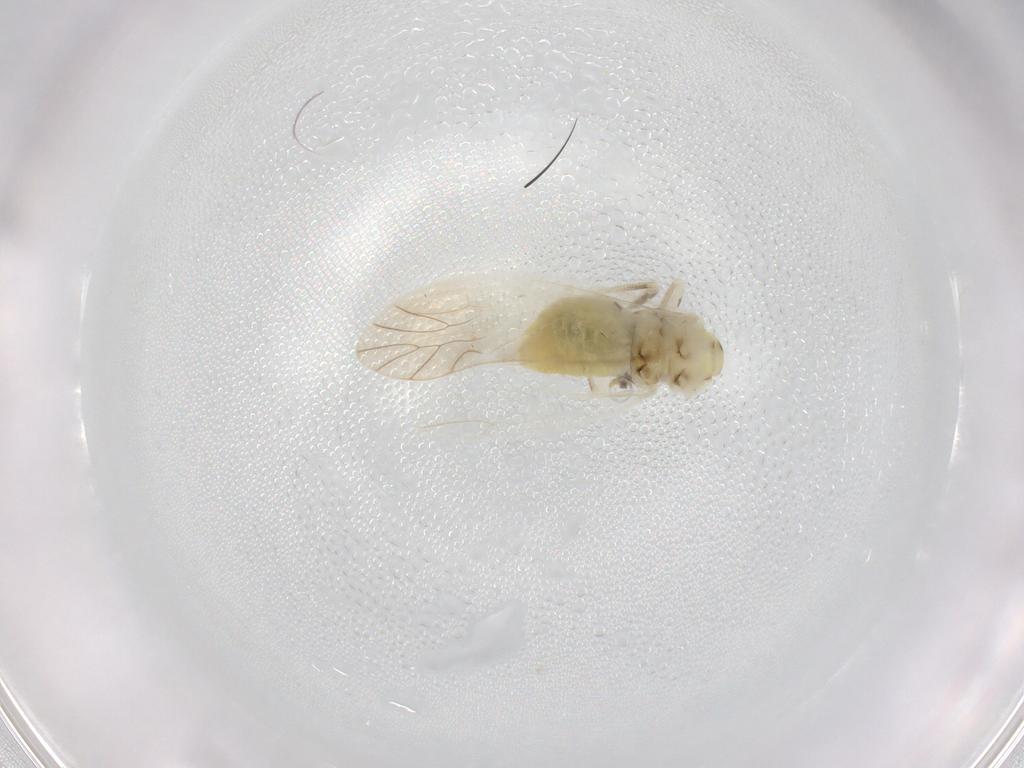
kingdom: Animalia
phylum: Arthropoda
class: Insecta
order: Psocodea
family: Caeciliusidae
